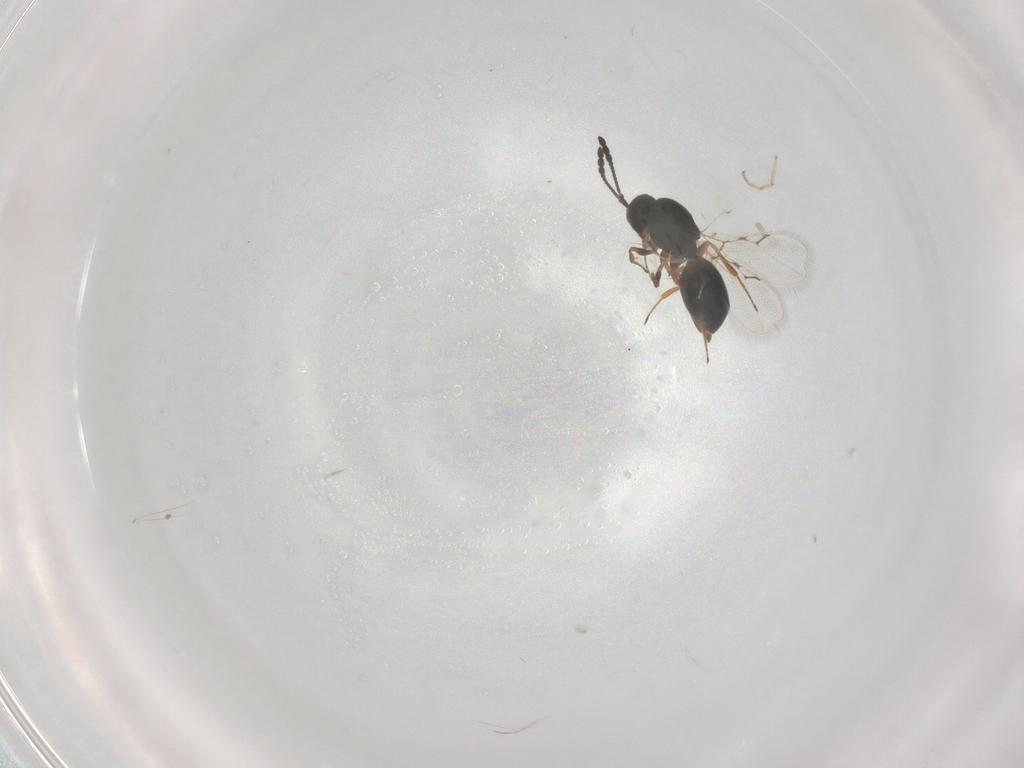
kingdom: Animalia
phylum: Arthropoda
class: Insecta
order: Hymenoptera
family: Figitidae
